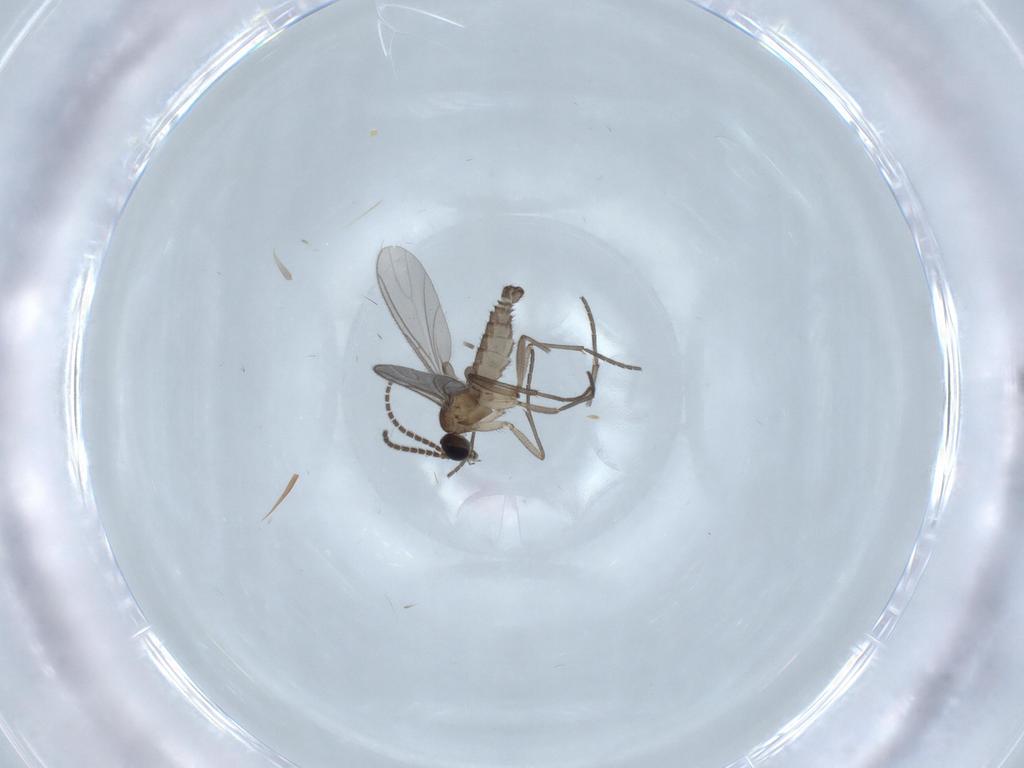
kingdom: Animalia
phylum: Arthropoda
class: Insecta
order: Diptera
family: Sciaridae
